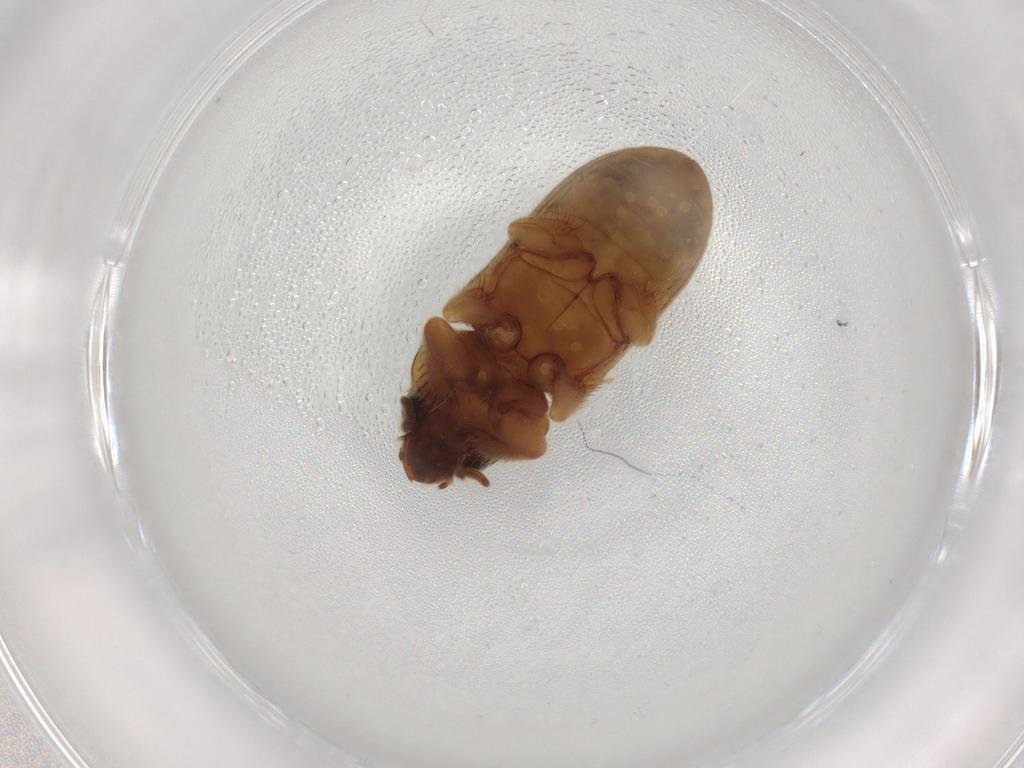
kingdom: Animalia
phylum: Arthropoda
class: Insecta
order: Coleoptera
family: Heteroceridae
